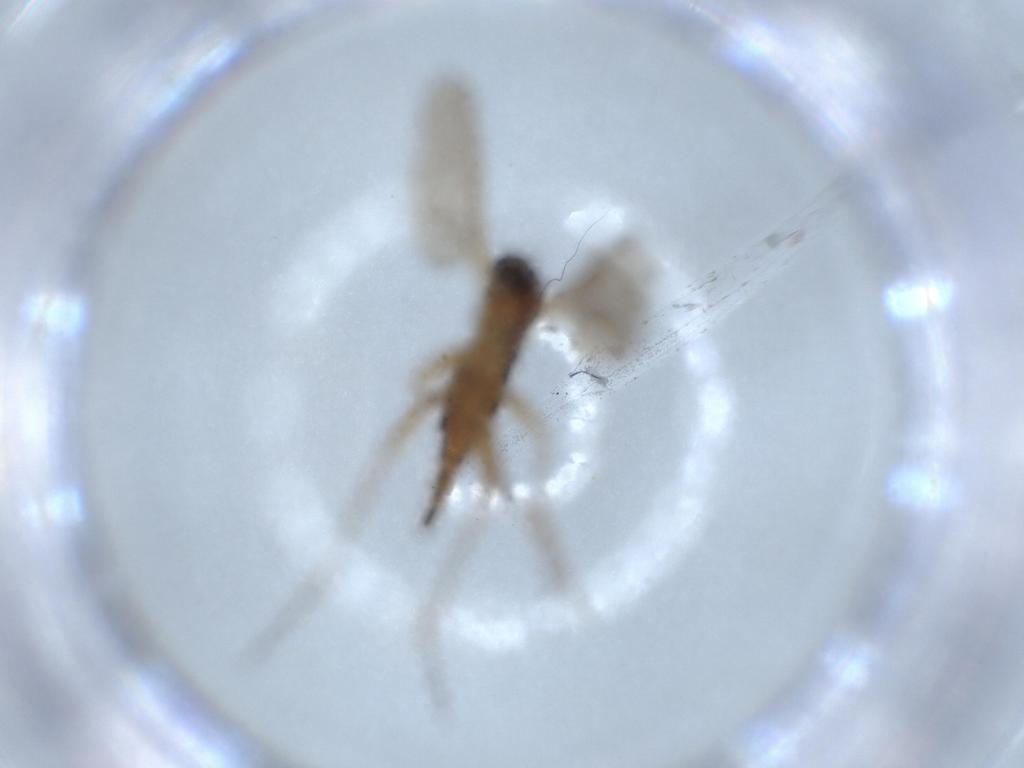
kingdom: Animalia
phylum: Arthropoda
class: Insecta
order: Diptera
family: Sciaridae
